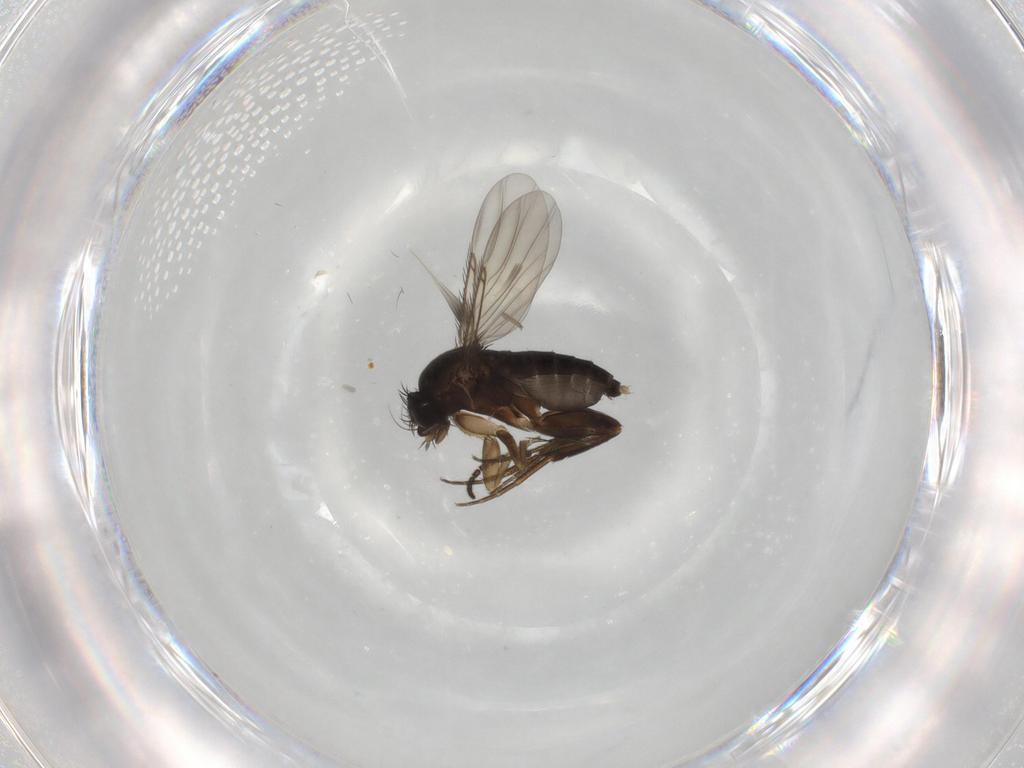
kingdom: Animalia
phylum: Arthropoda
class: Insecta
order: Diptera
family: Phoridae
